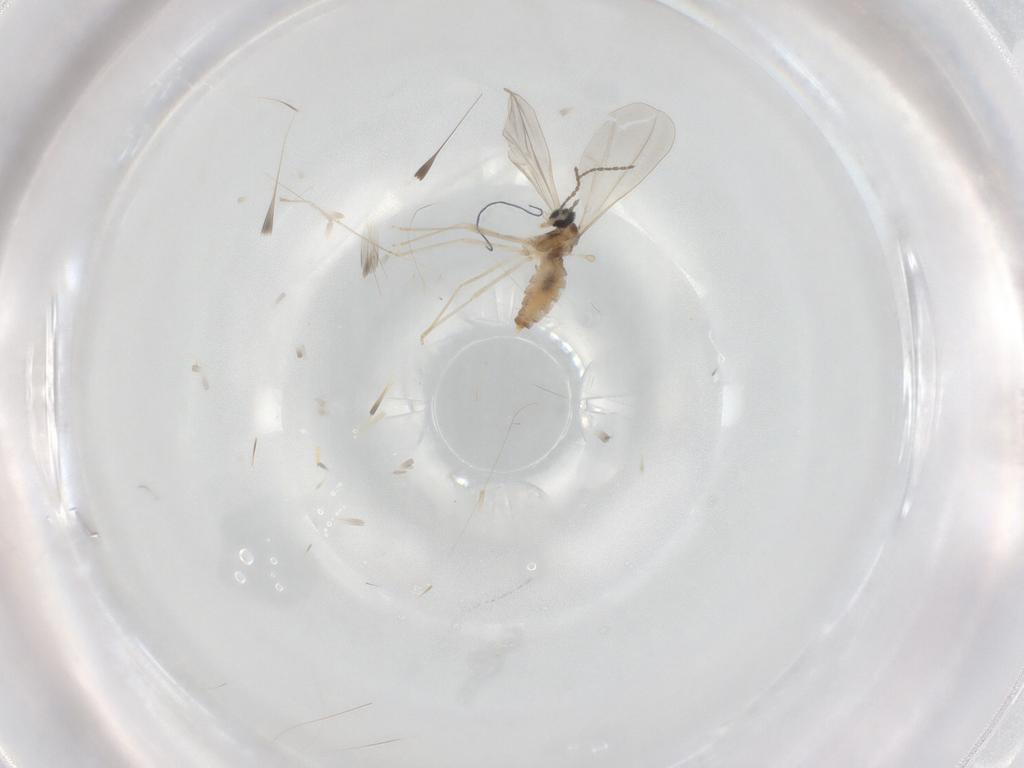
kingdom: Animalia
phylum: Arthropoda
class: Insecta
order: Diptera
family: Cecidomyiidae
